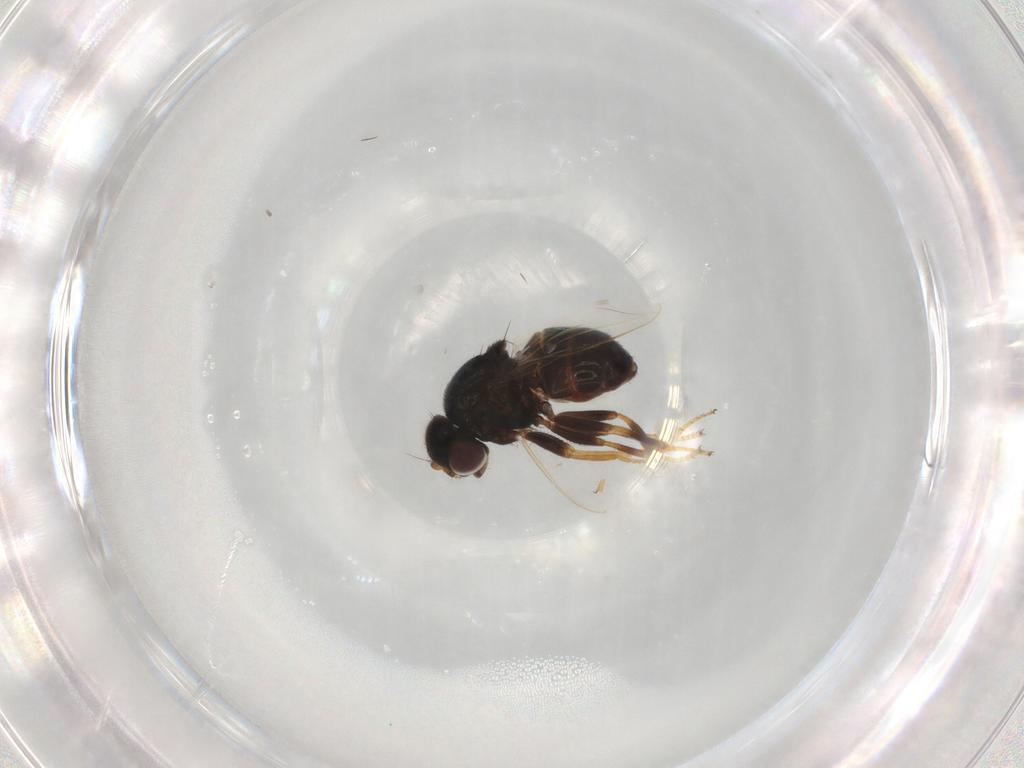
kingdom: Animalia
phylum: Arthropoda
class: Insecta
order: Diptera
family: Chloropidae
